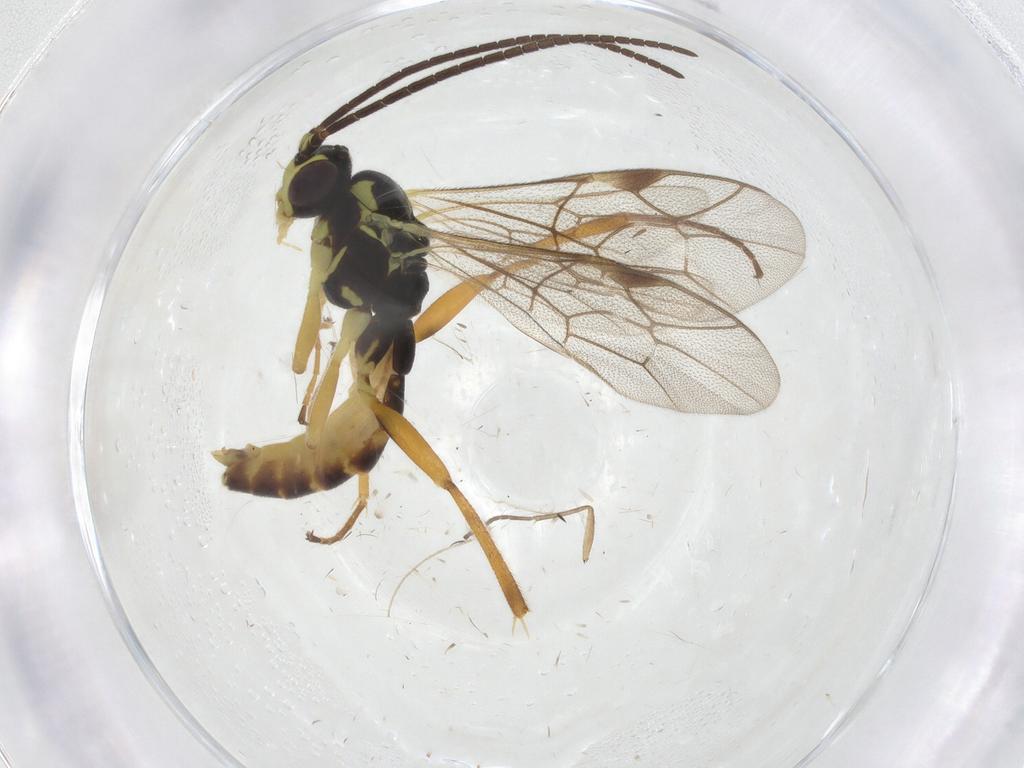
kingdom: Animalia
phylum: Arthropoda
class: Insecta
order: Hymenoptera
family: Ichneumonidae
